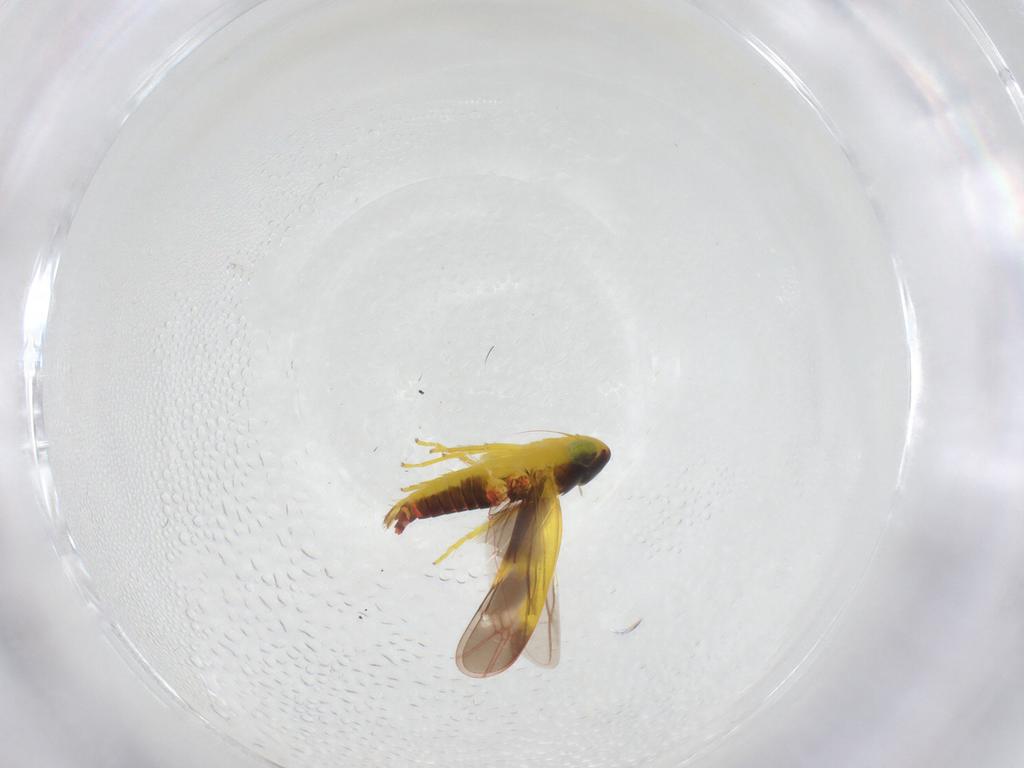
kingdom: Animalia
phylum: Arthropoda
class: Insecta
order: Hemiptera
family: Cicadellidae
